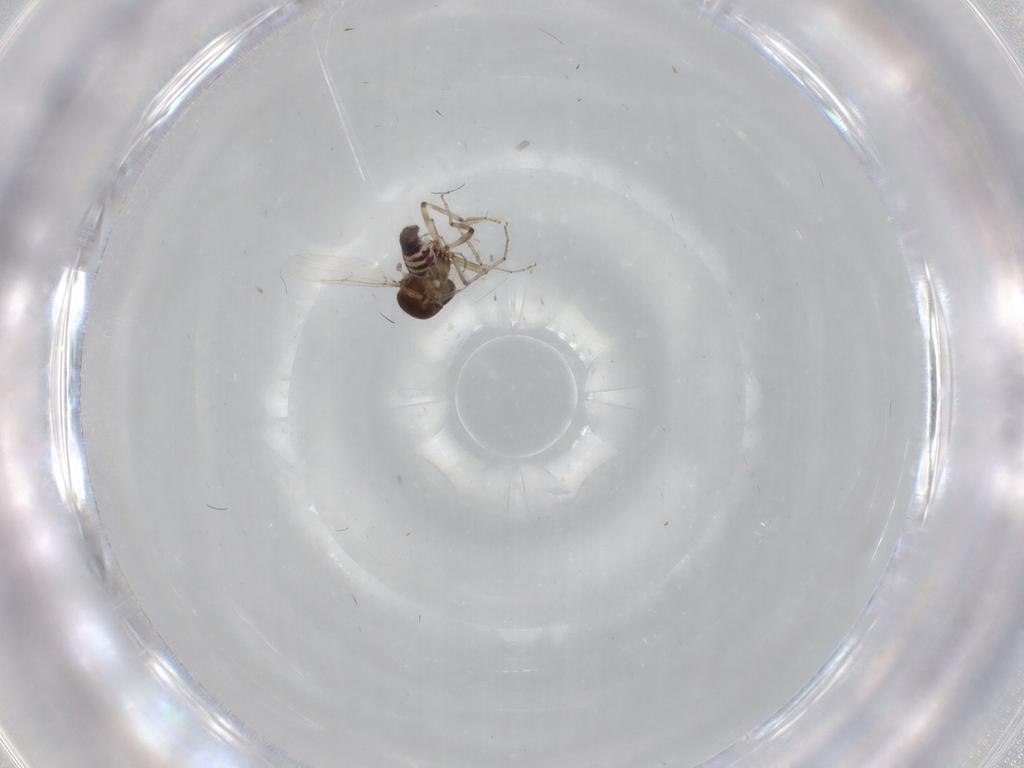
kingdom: Animalia
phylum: Arthropoda
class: Insecta
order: Diptera
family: Ceratopogonidae
